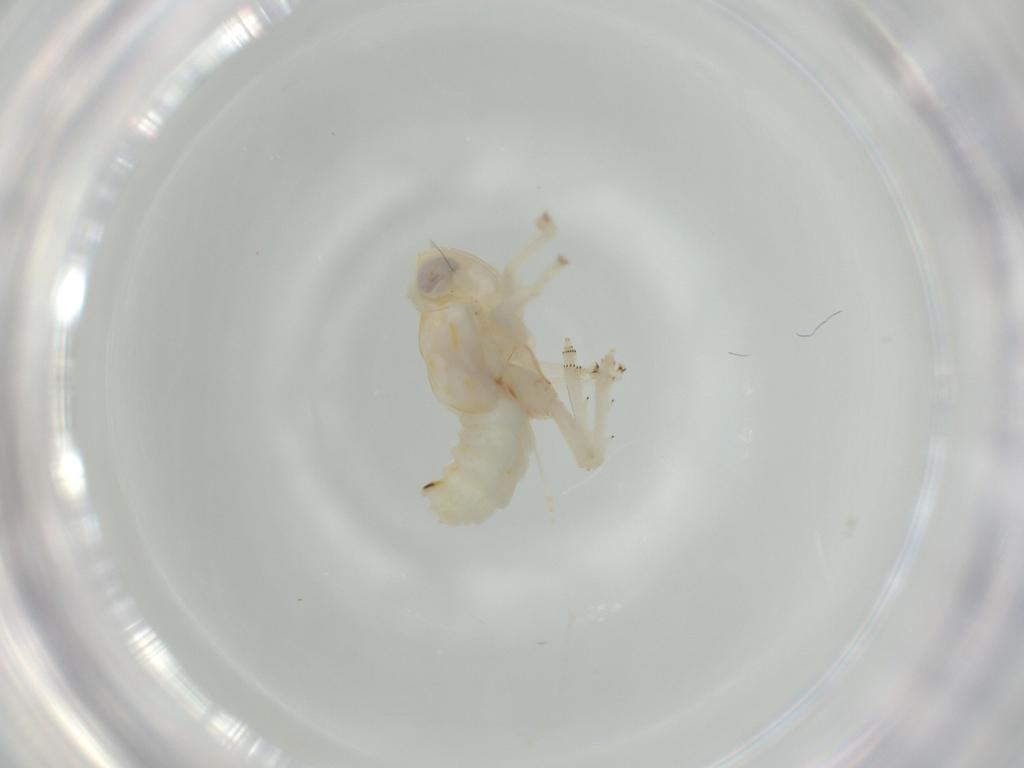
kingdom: Animalia
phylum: Arthropoda
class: Insecta
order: Hemiptera
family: Nogodinidae
